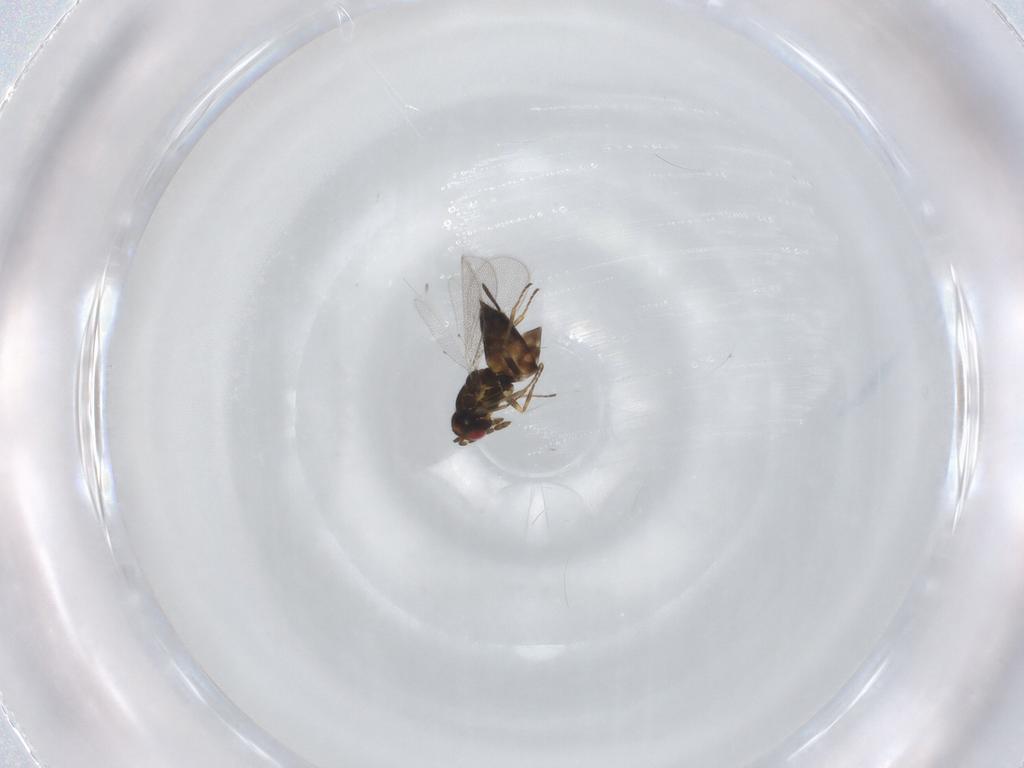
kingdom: Animalia
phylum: Arthropoda
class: Insecta
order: Hymenoptera
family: Eulophidae
